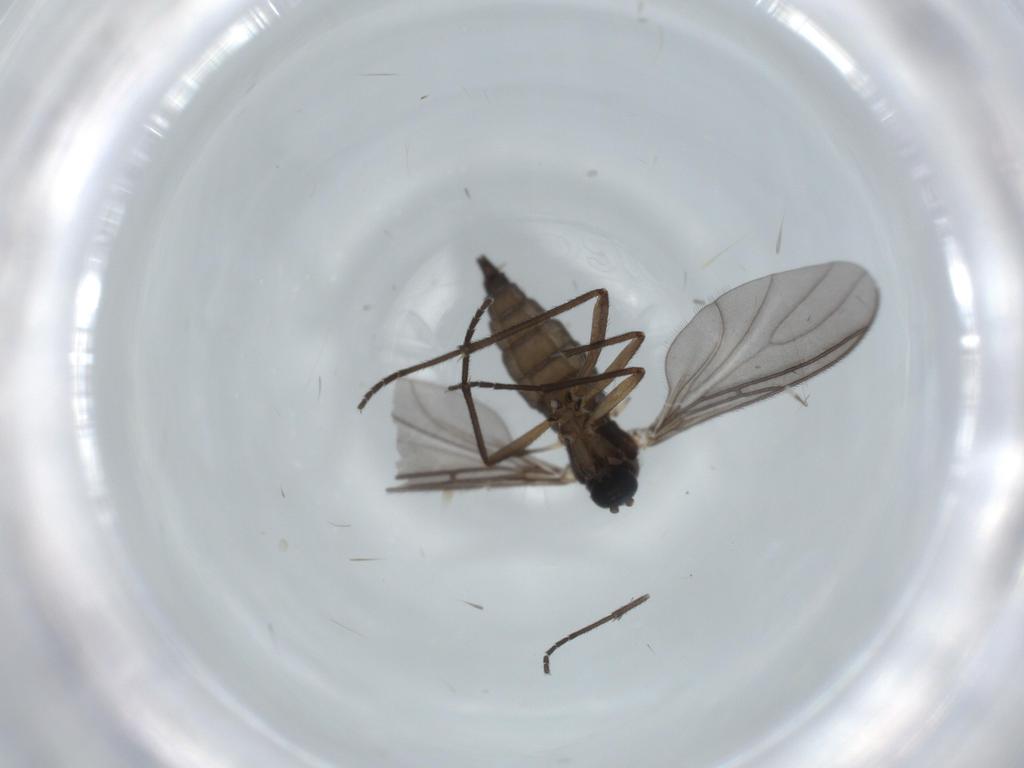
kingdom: Animalia
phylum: Arthropoda
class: Insecta
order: Diptera
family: Sciaridae
